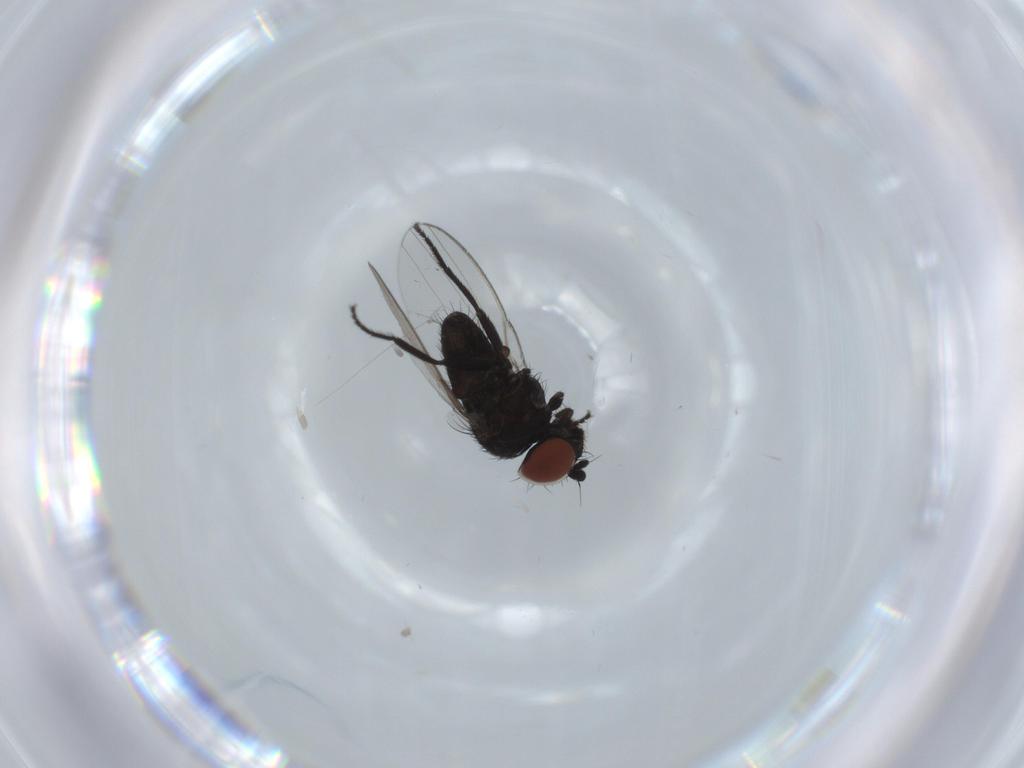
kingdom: Animalia
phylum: Arthropoda
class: Insecta
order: Diptera
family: Milichiidae
